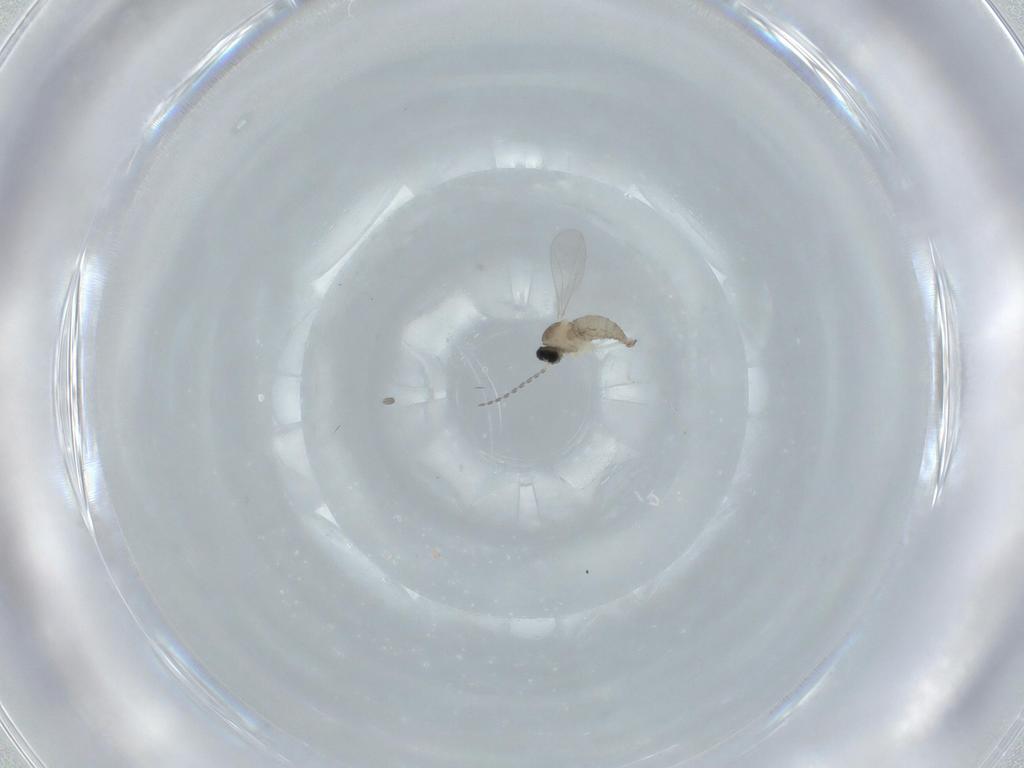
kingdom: Animalia
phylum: Arthropoda
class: Insecta
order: Diptera
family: Cecidomyiidae
